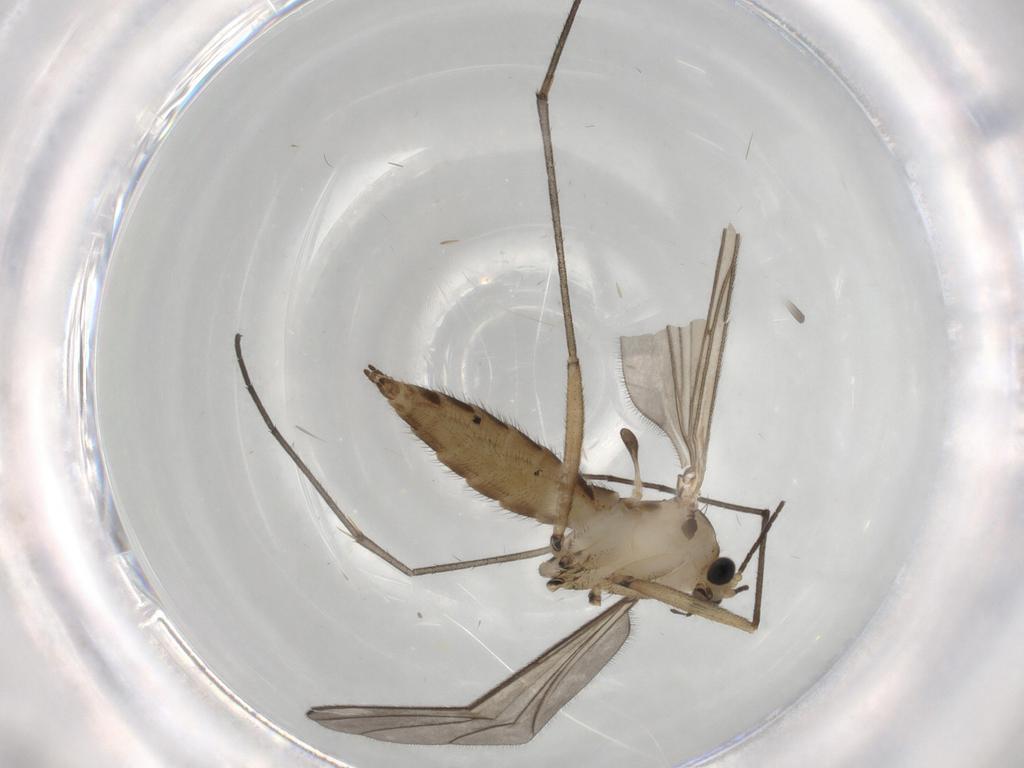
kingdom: Animalia
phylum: Arthropoda
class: Insecta
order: Diptera
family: Sciaridae
